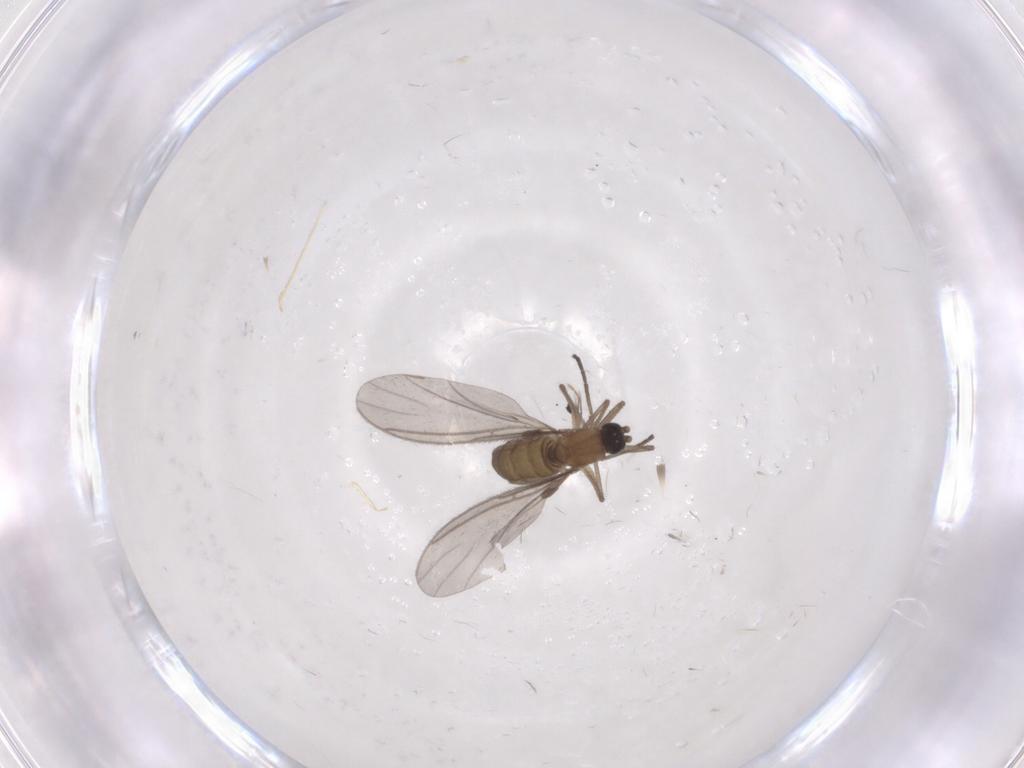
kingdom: Animalia
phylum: Arthropoda
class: Insecta
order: Diptera
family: Sciaridae
